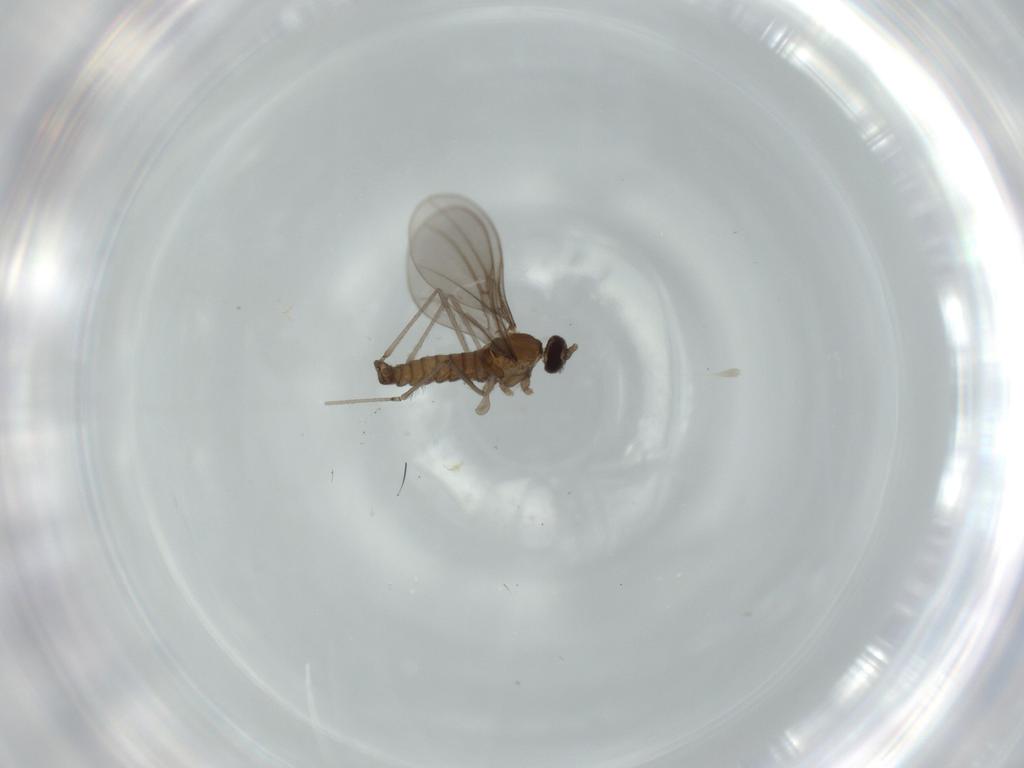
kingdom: Animalia
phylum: Arthropoda
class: Insecta
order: Diptera
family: Cecidomyiidae
